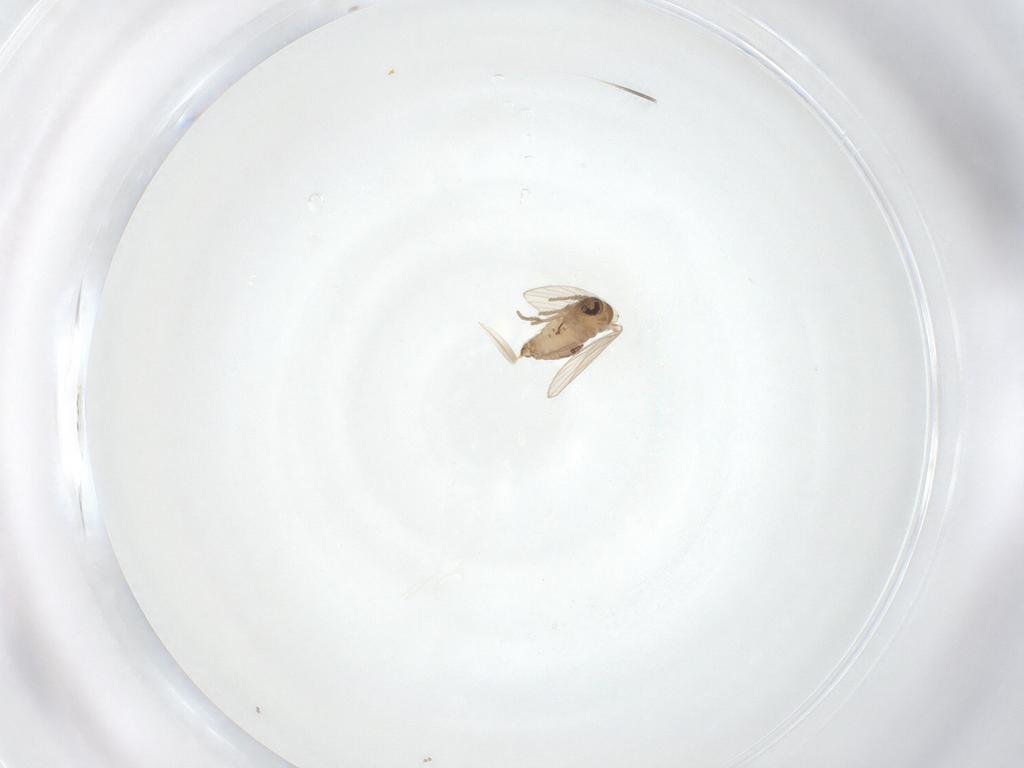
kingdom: Animalia
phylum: Arthropoda
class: Insecta
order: Diptera
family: Psychodidae
